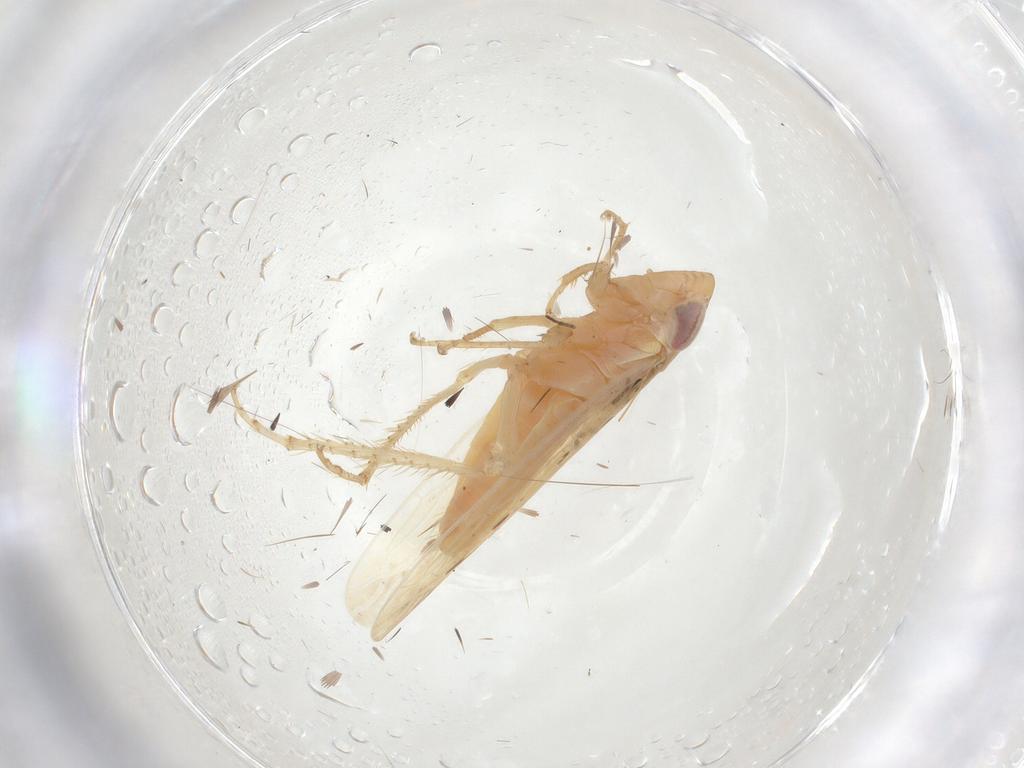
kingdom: Animalia
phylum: Arthropoda
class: Insecta
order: Hemiptera
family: Cicadellidae
